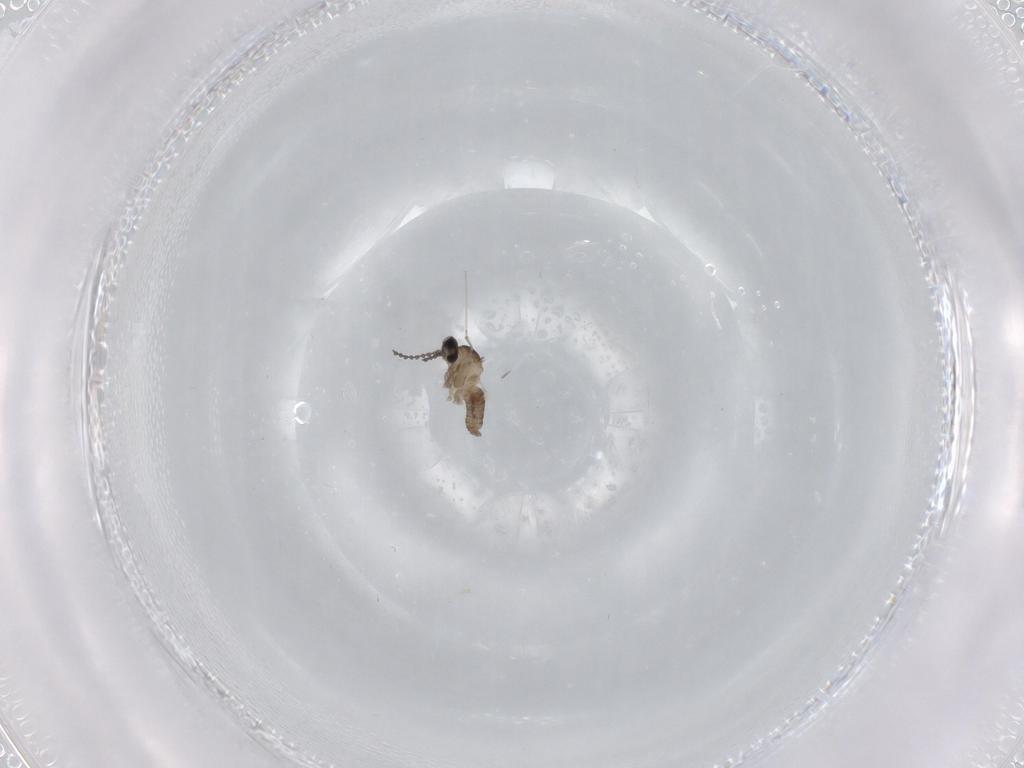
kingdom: Animalia
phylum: Arthropoda
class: Insecta
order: Diptera
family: Cecidomyiidae
